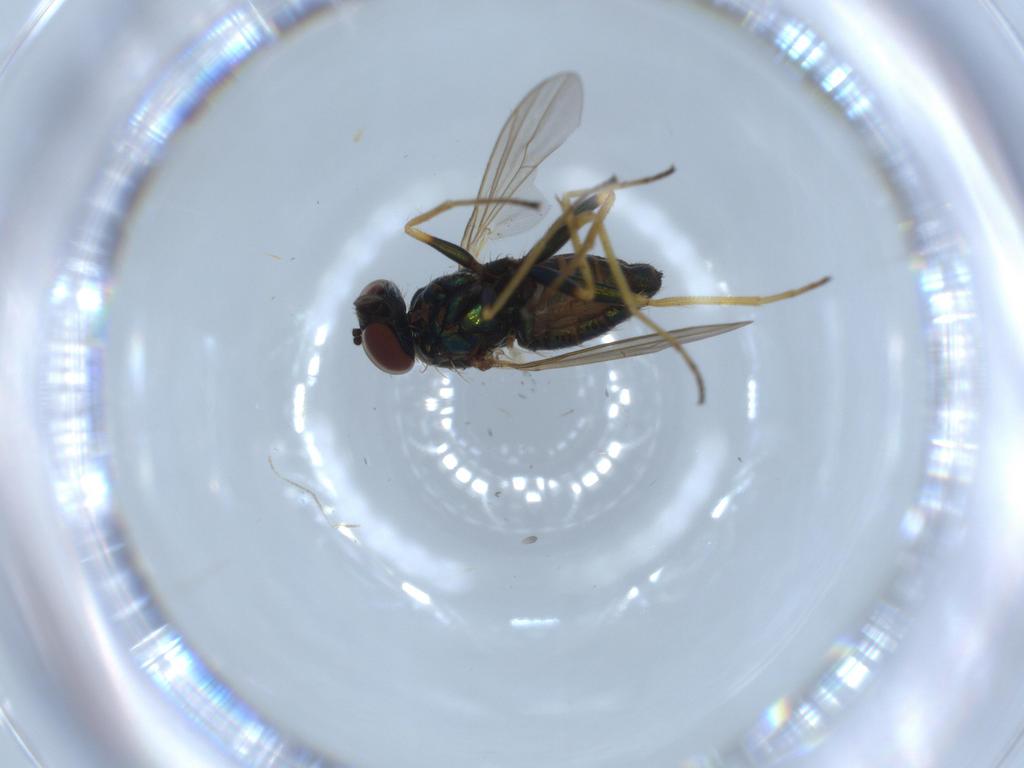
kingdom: Animalia
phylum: Arthropoda
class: Insecta
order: Diptera
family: Dolichopodidae
